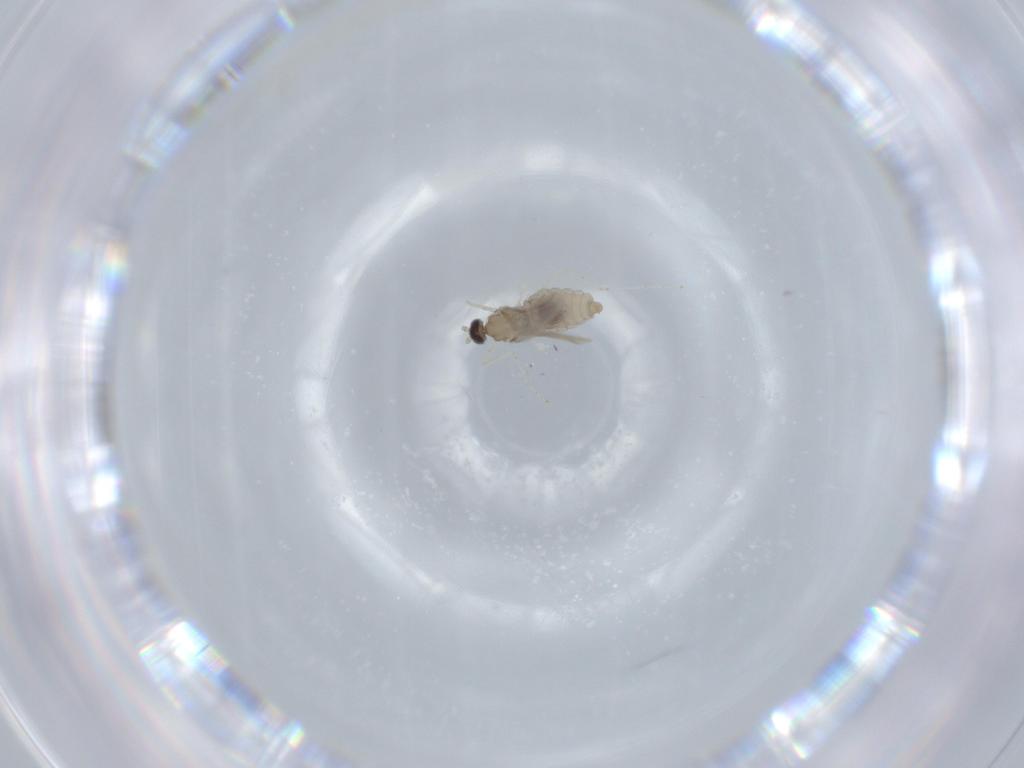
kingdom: Animalia
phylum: Arthropoda
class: Insecta
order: Diptera
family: Cecidomyiidae
